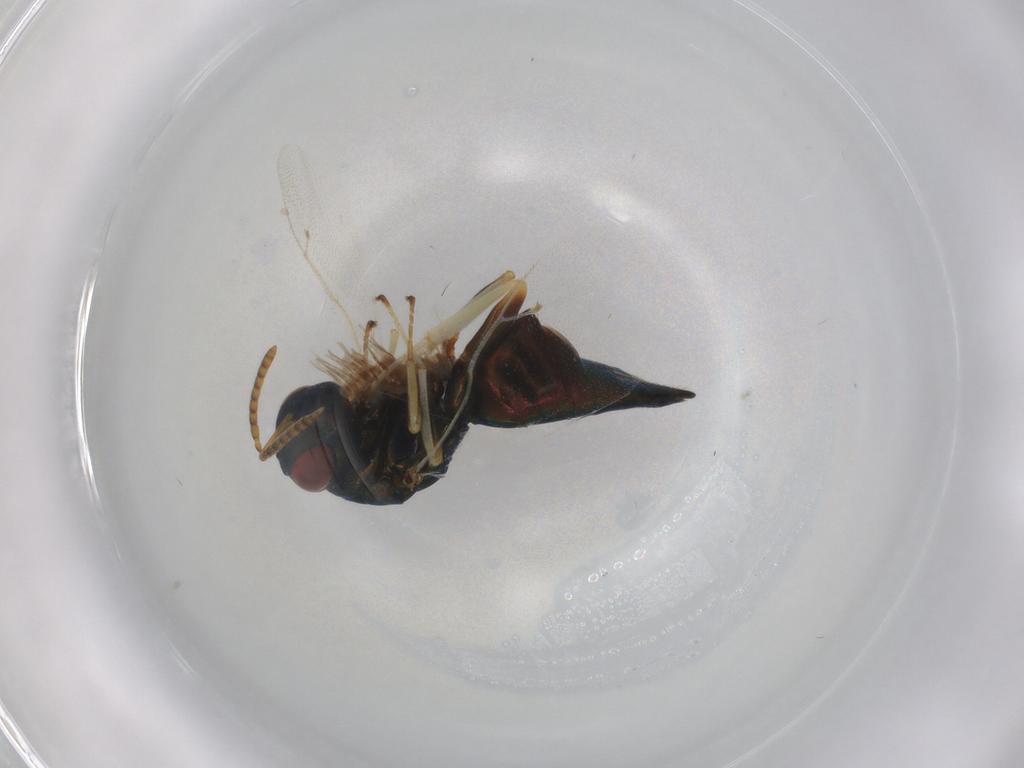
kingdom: Animalia
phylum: Arthropoda
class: Insecta
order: Hymenoptera
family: Pteromalidae
